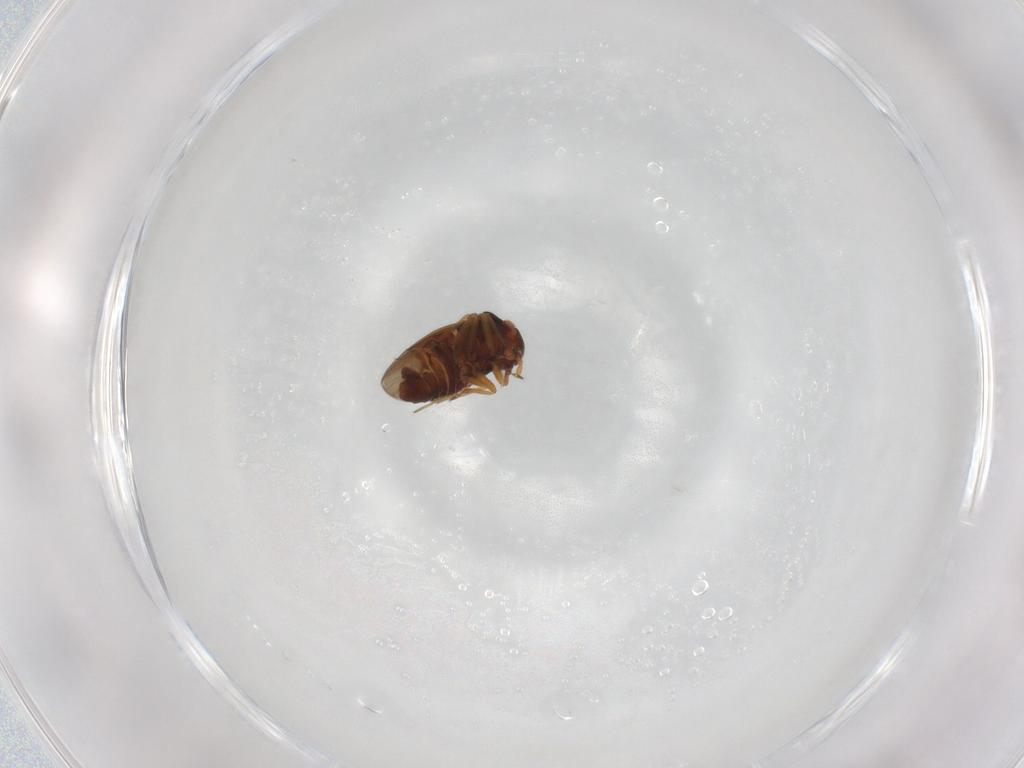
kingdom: Animalia
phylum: Arthropoda
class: Insecta
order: Hemiptera
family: Schizopteridae
